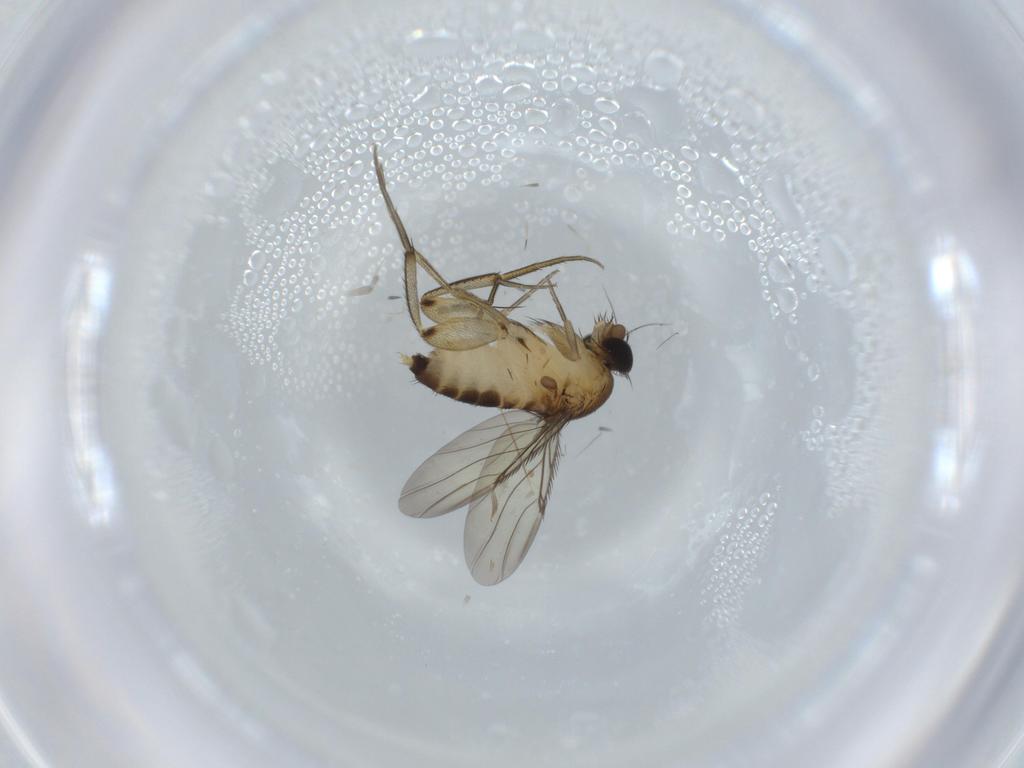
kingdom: Animalia
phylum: Arthropoda
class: Insecta
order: Diptera
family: Phoridae
